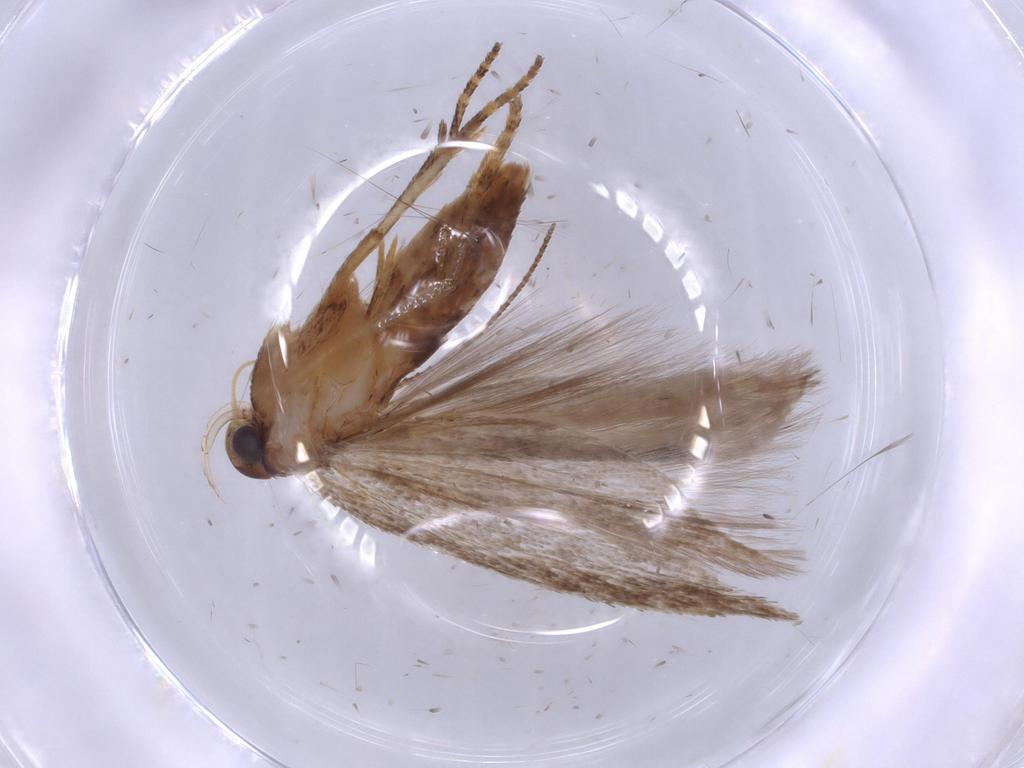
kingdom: Animalia
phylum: Arthropoda
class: Insecta
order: Lepidoptera
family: Gelechiidae
